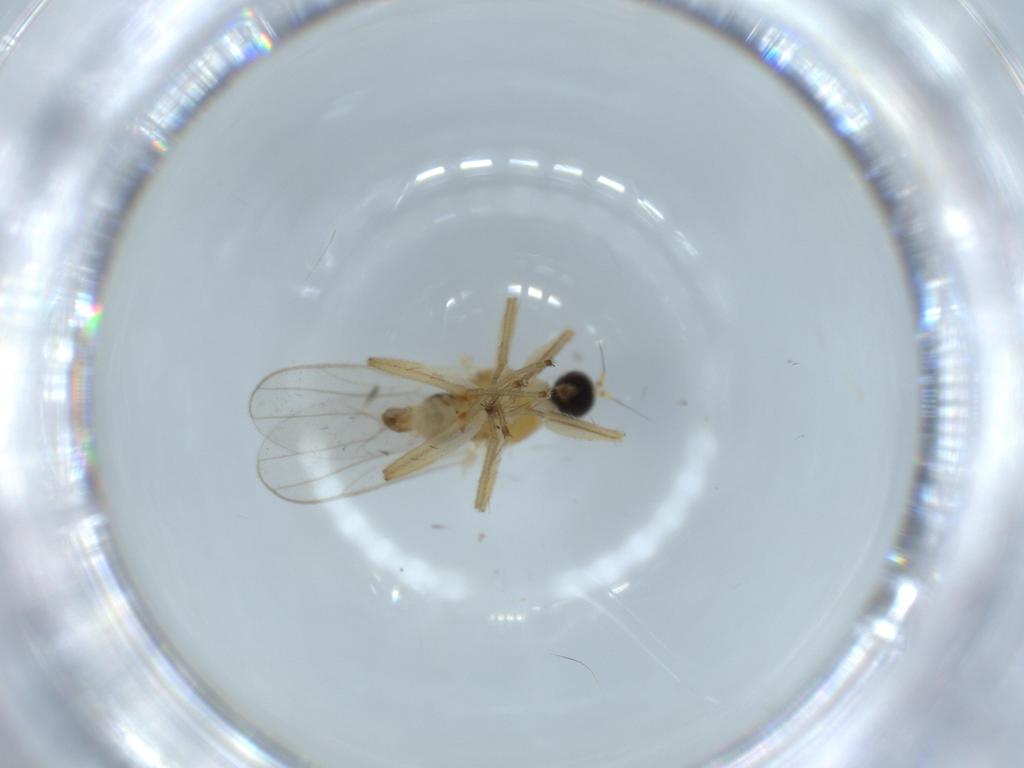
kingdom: Animalia
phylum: Arthropoda
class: Insecta
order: Diptera
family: Hybotidae
